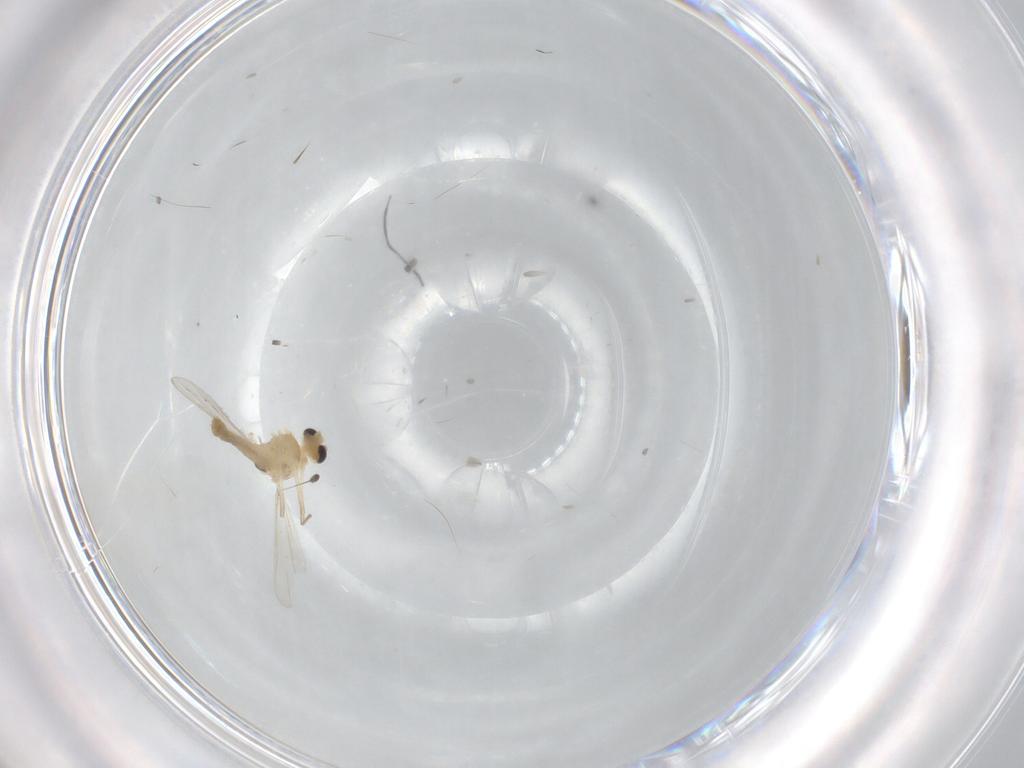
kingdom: Animalia
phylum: Arthropoda
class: Insecta
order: Diptera
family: Chironomidae
